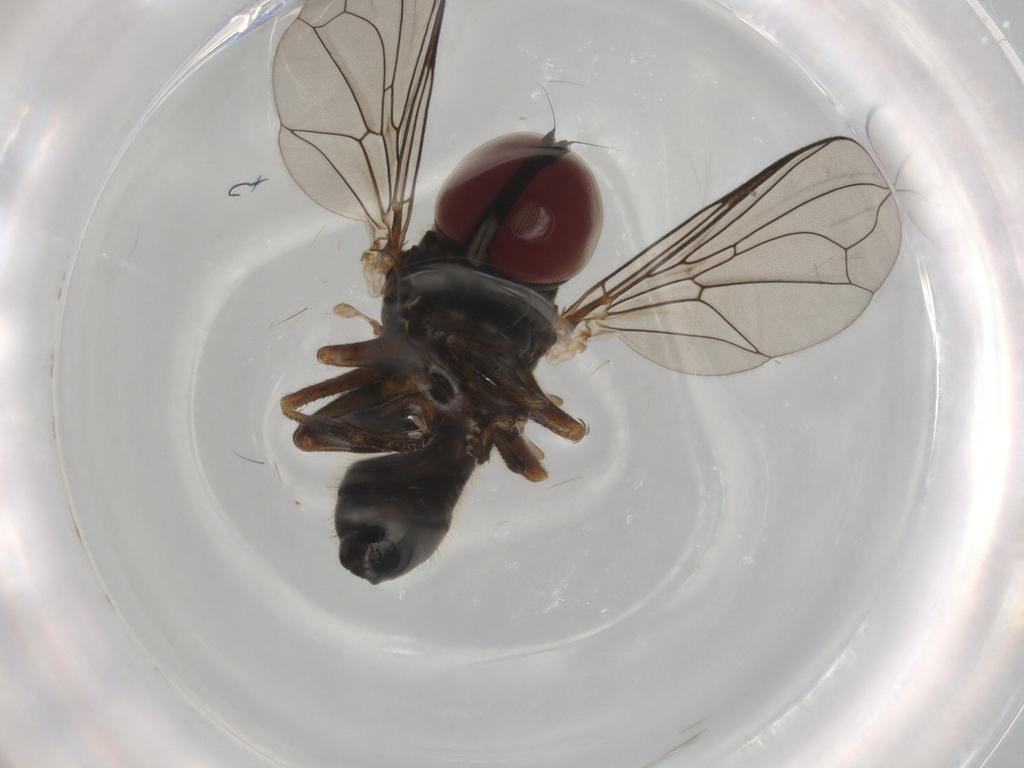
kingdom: Animalia
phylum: Arthropoda
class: Insecta
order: Diptera
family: Pipunculidae
